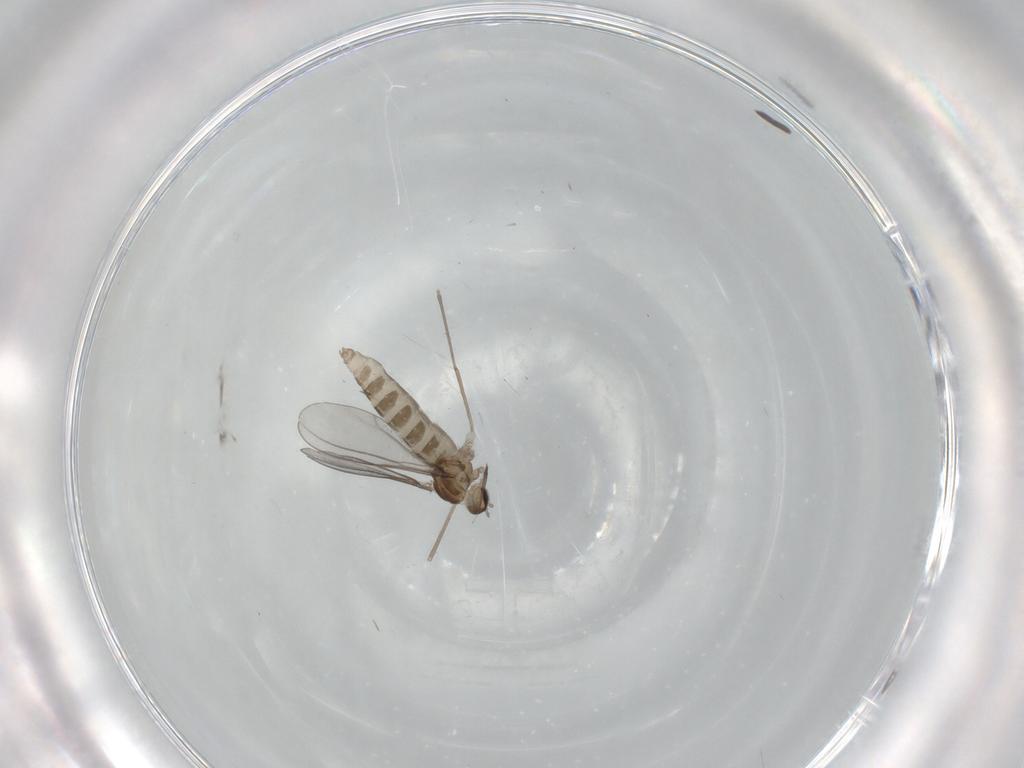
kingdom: Animalia
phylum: Arthropoda
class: Insecta
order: Diptera
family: Cecidomyiidae
